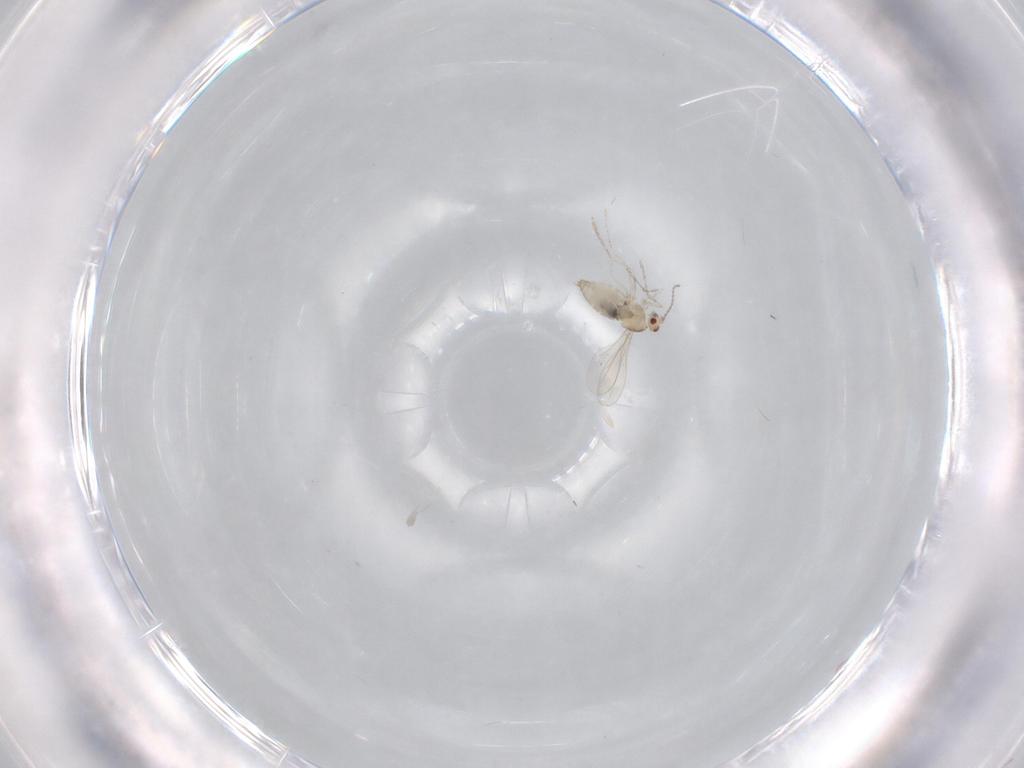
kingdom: Animalia
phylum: Arthropoda
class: Insecta
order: Diptera
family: Cecidomyiidae
